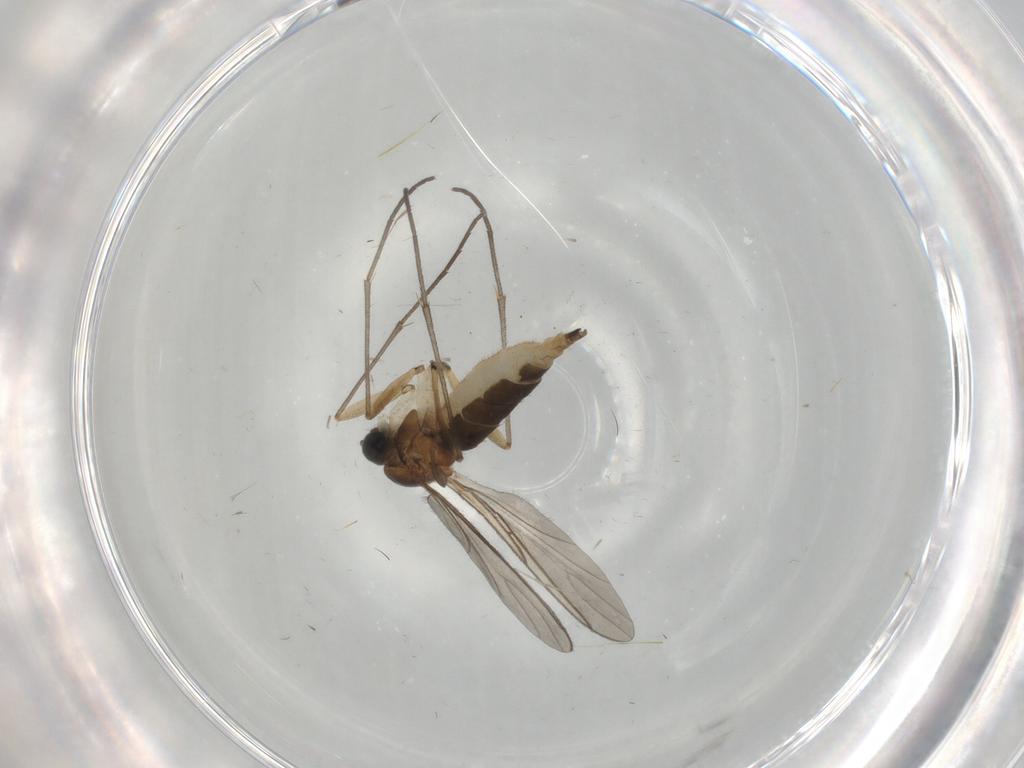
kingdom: Animalia
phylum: Arthropoda
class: Insecta
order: Diptera
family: Sciaridae
